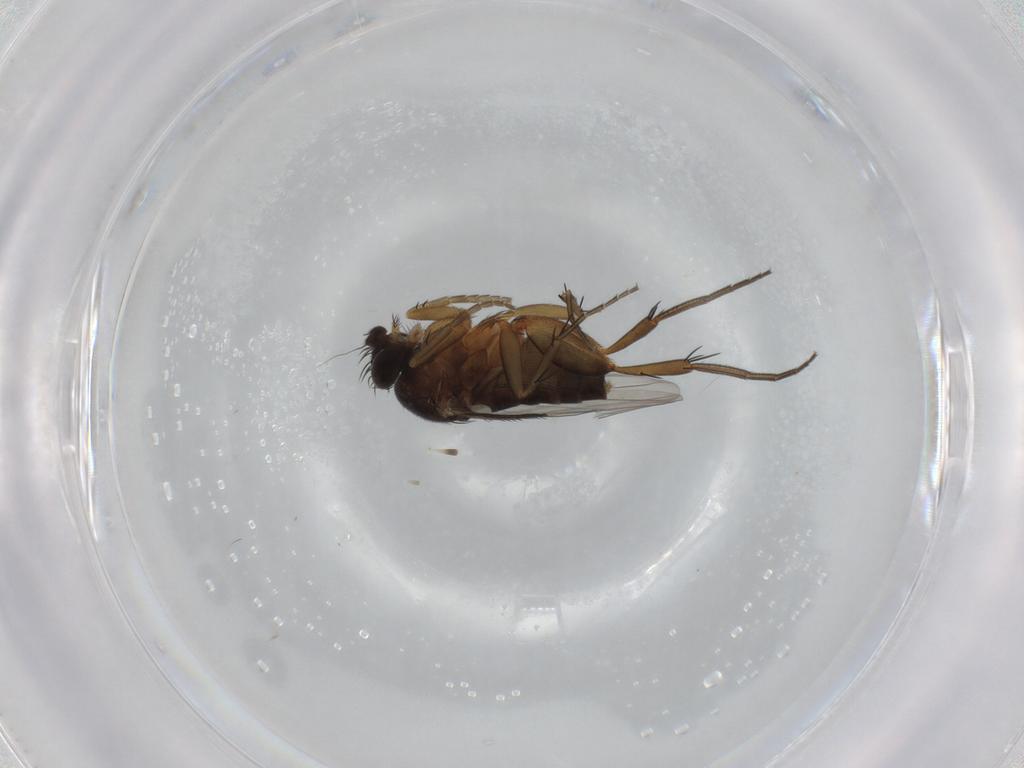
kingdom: Animalia
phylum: Arthropoda
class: Insecta
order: Diptera
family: Phoridae
